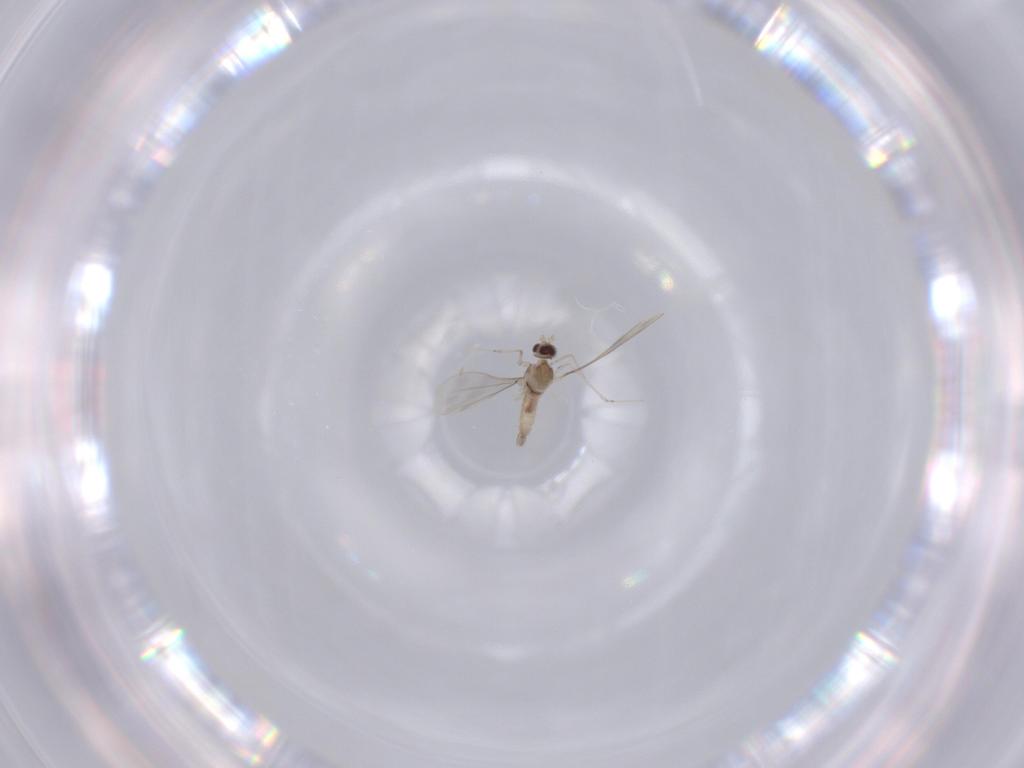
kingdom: Animalia
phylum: Arthropoda
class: Insecta
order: Diptera
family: Cecidomyiidae
